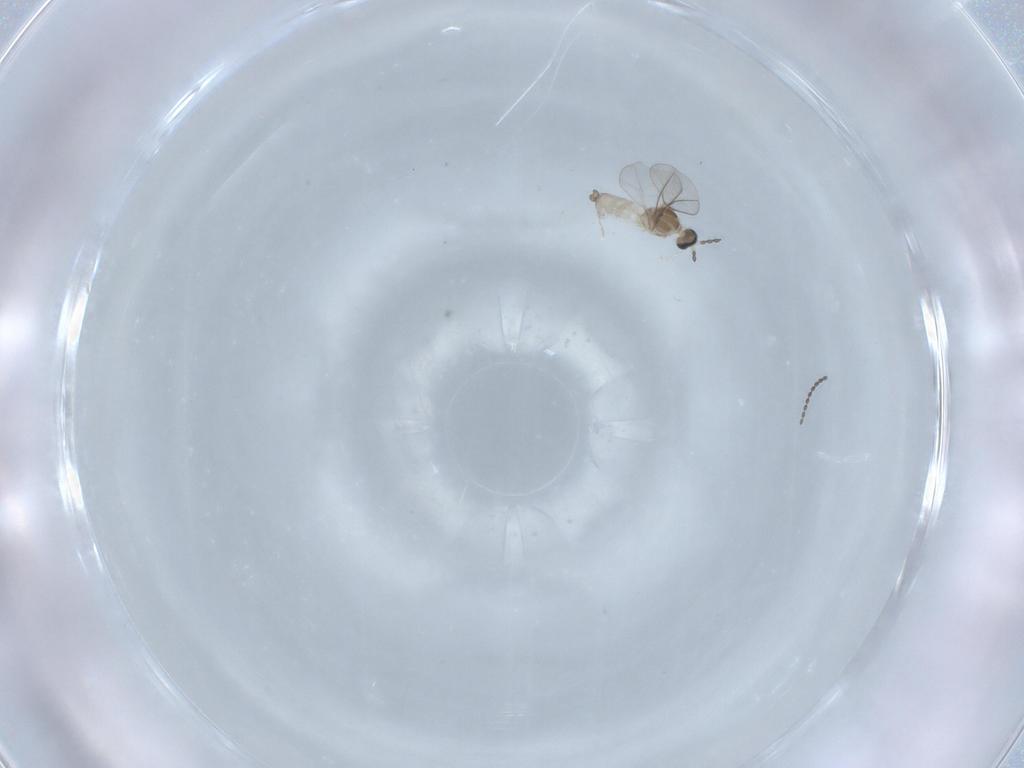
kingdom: Animalia
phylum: Arthropoda
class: Insecta
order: Diptera
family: Cecidomyiidae
